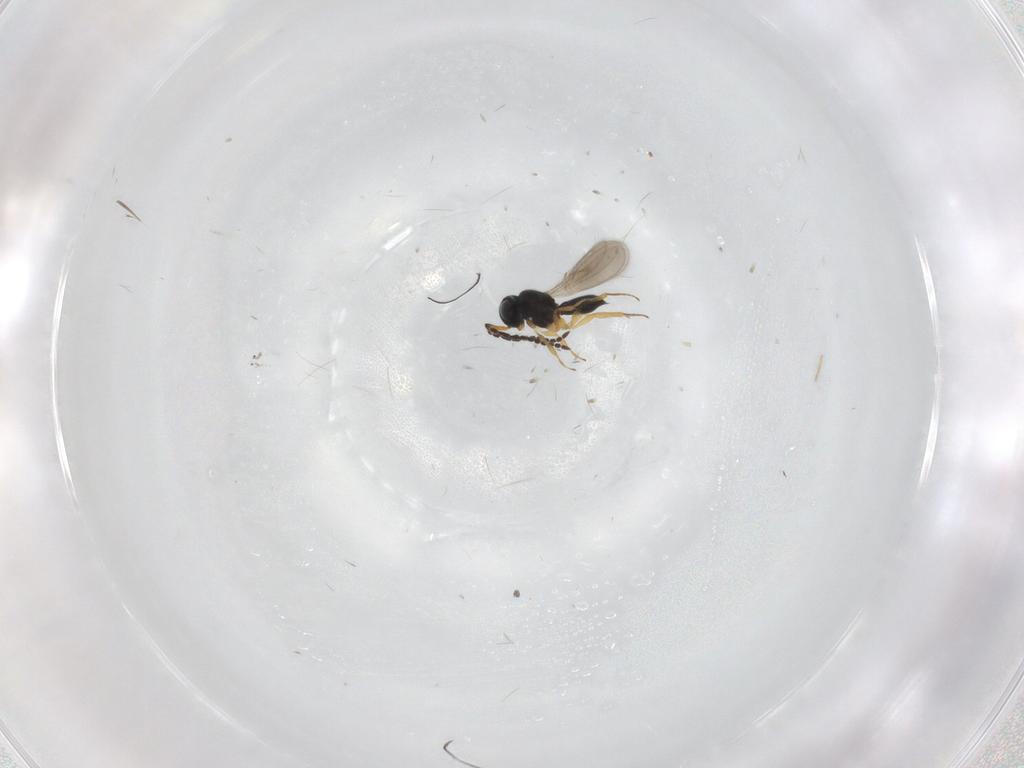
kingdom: Animalia
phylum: Arthropoda
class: Insecta
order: Hymenoptera
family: Scelionidae
